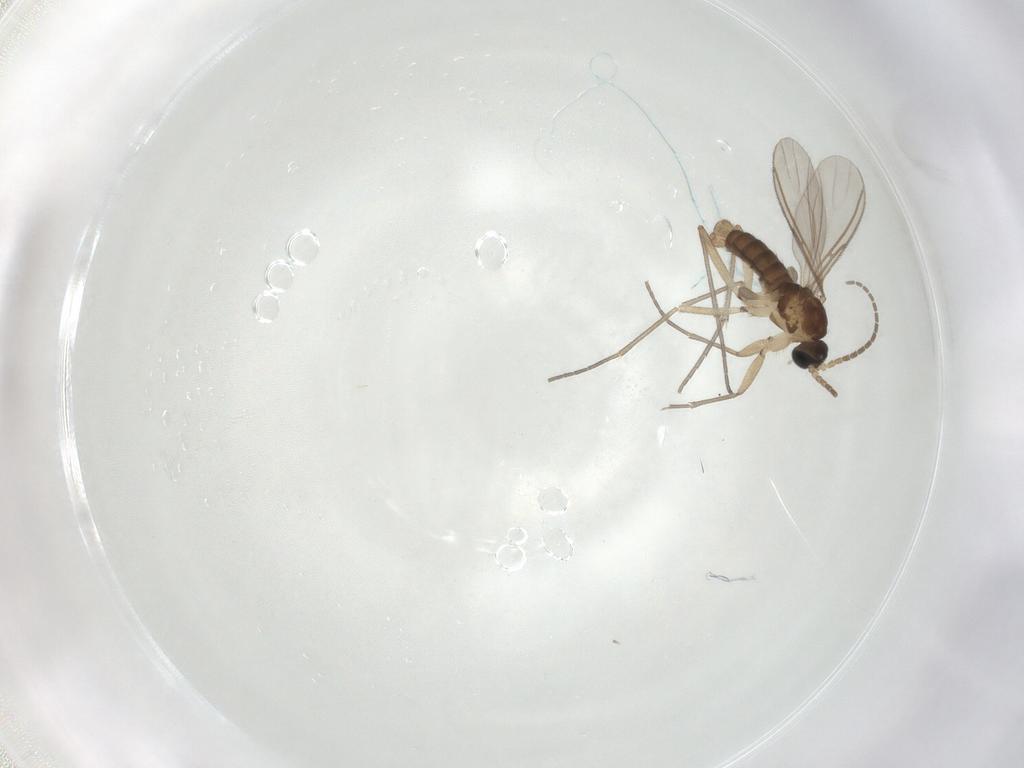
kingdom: Animalia
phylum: Arthropoda
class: Insecta
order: Diptera
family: Sciaridae
